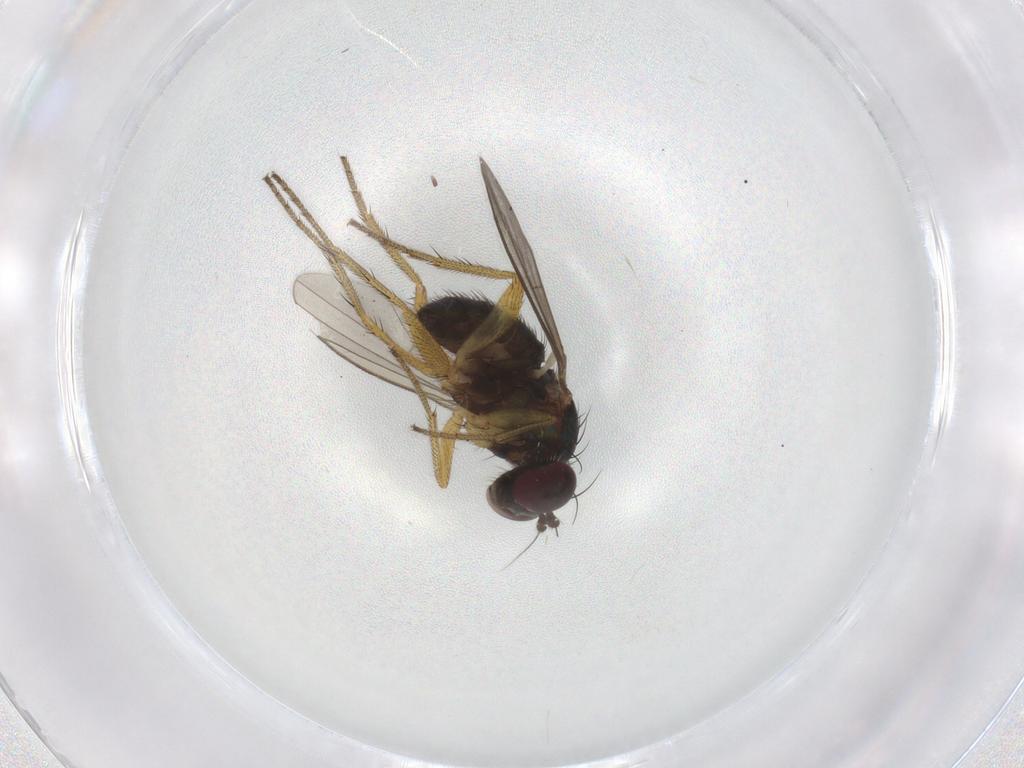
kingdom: Animalia
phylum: Arthropoda
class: Insecta
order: Diptera
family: Dolichopodidae
